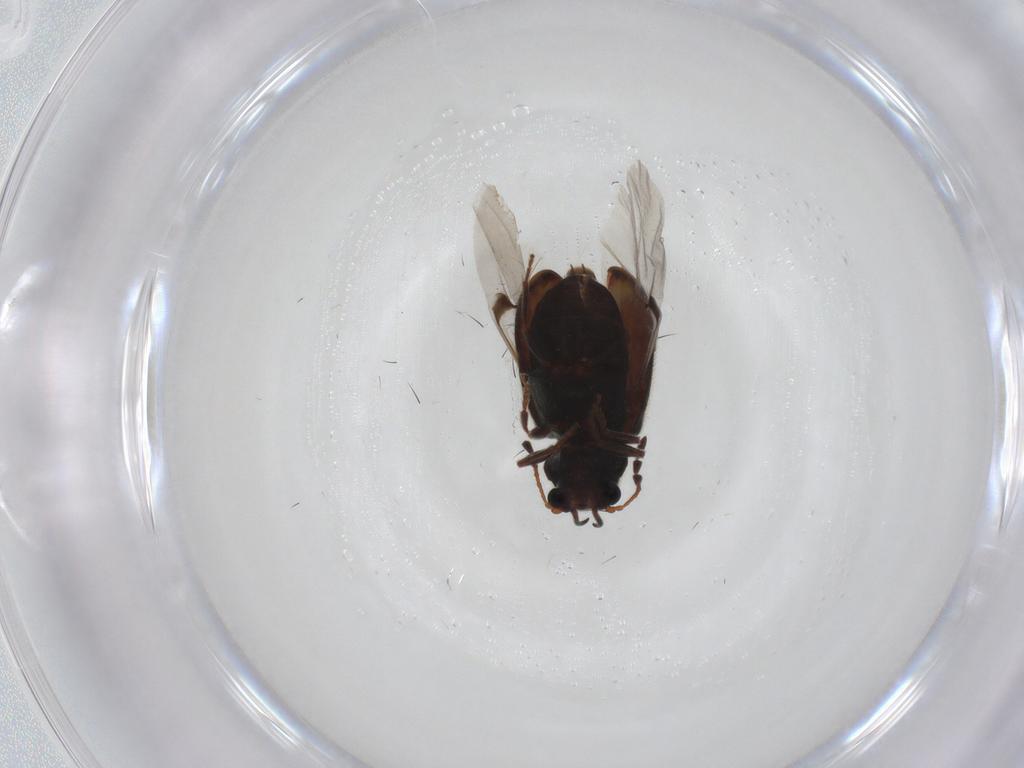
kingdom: Animalia
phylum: Arthropoda
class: Insecta
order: Coleoptera
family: Ptinidae
